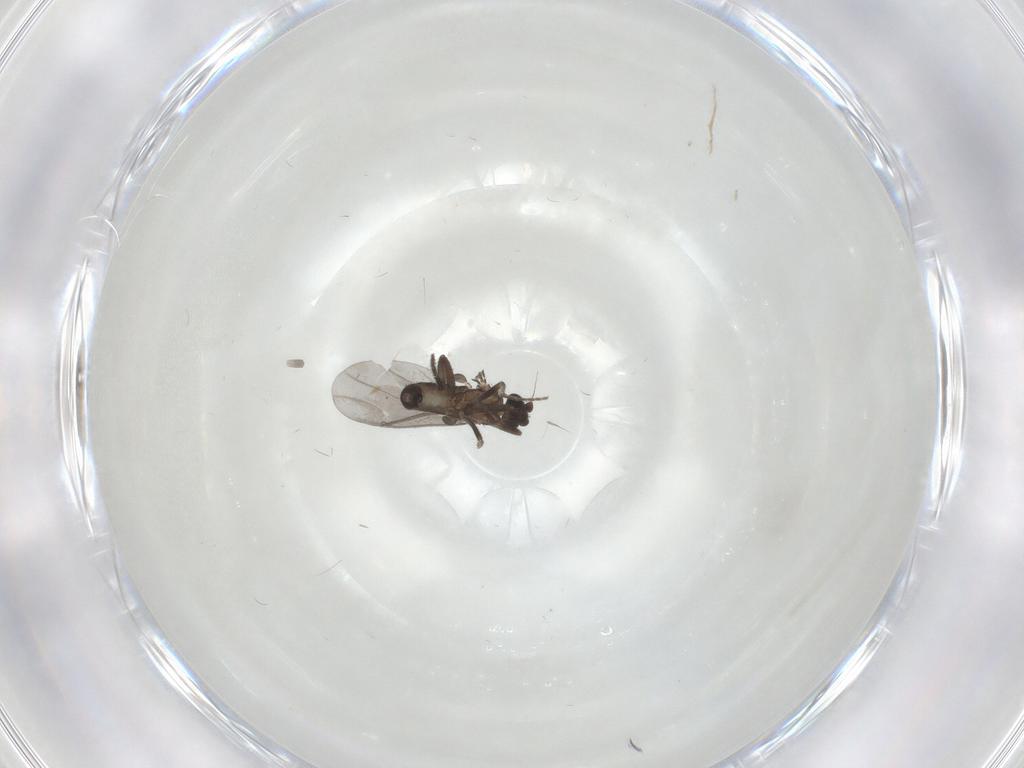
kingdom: Animalia
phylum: Arthropoda
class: Insecta
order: Diptera
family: Phoridae
